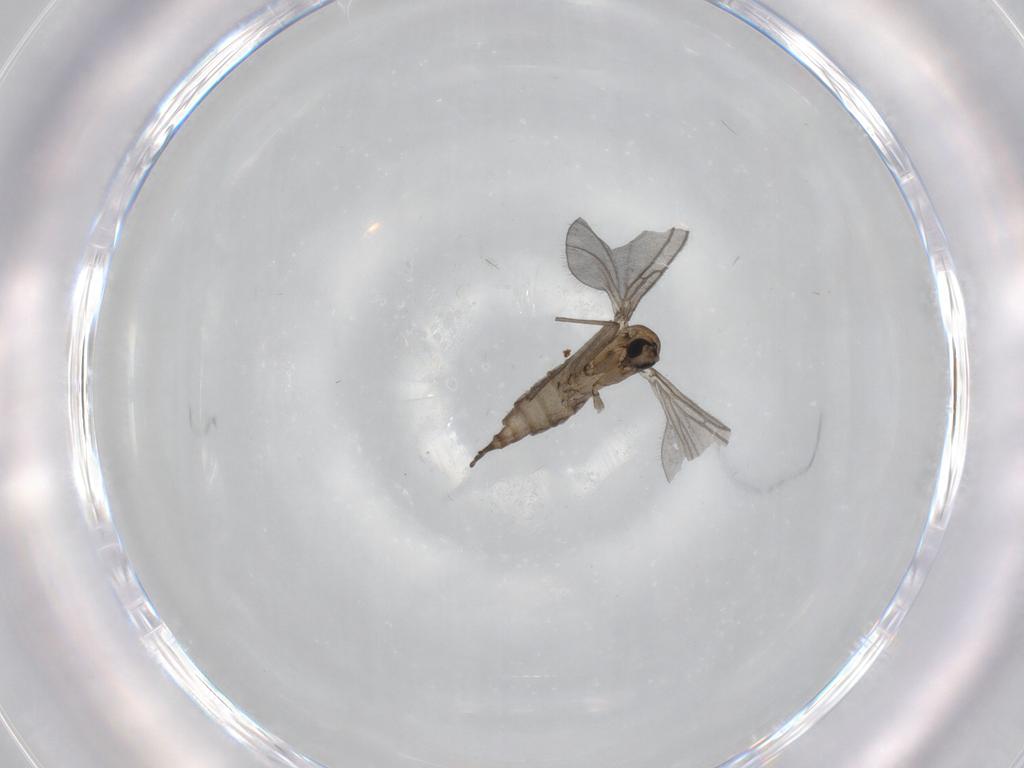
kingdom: Animalia
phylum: Arthropoda
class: Insecta
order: Diptera
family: Sciaridae
